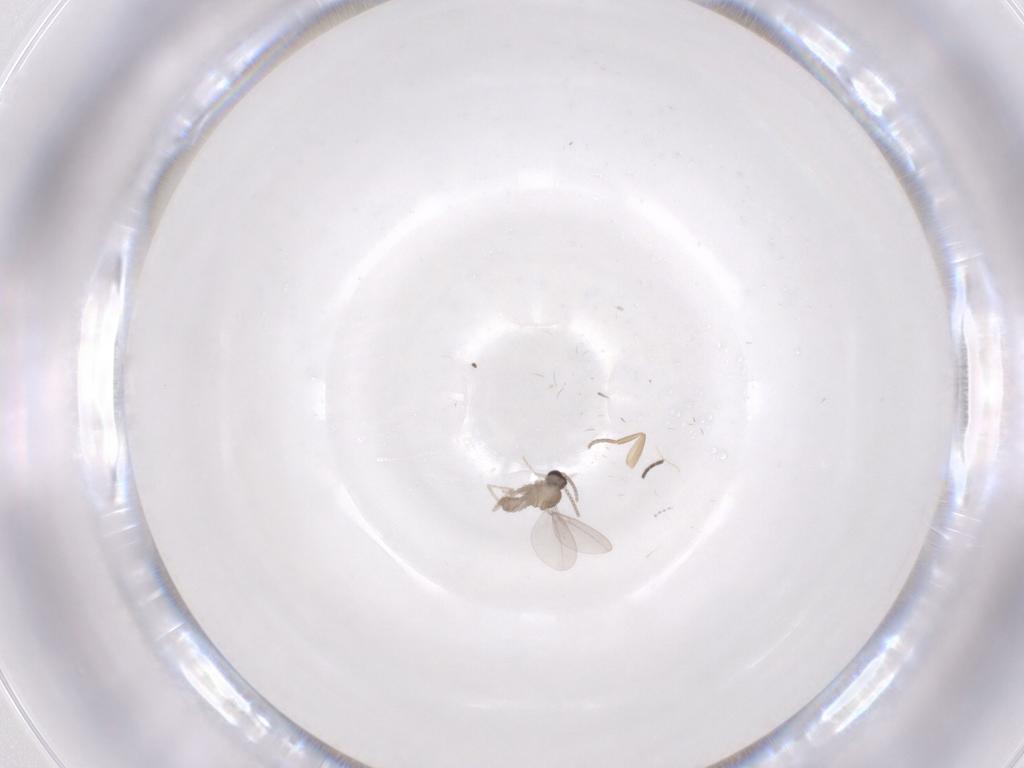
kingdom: Animalia
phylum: Arthropoda
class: Insecta
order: Diptera
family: Cecidomyiidae
